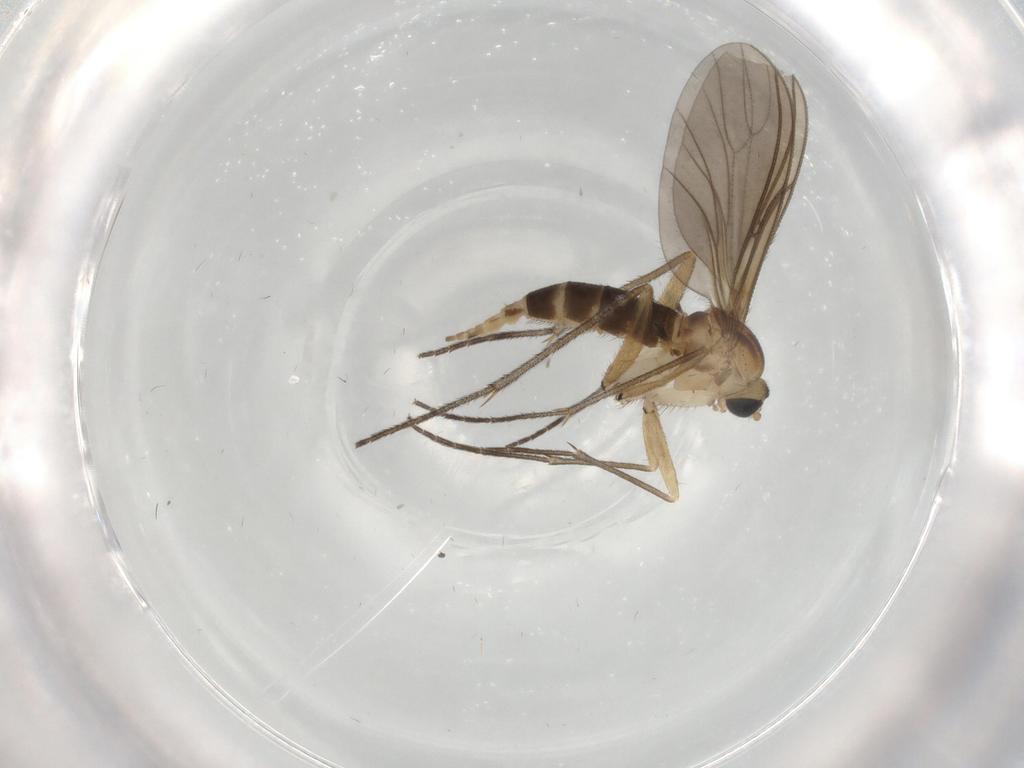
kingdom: Animalia
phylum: Arthropoda
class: Insecta
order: Diptera
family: Sciaridae
